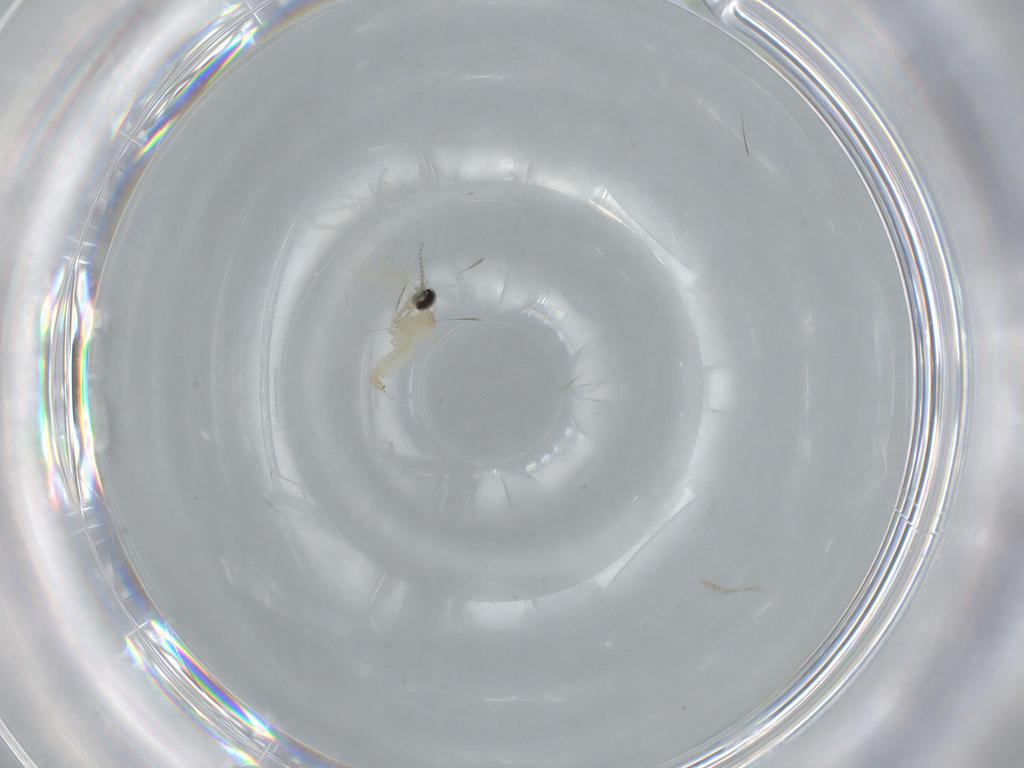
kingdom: Animalia
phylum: Arthropoda
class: Insecta
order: Diptera
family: Cecidomyiidae
